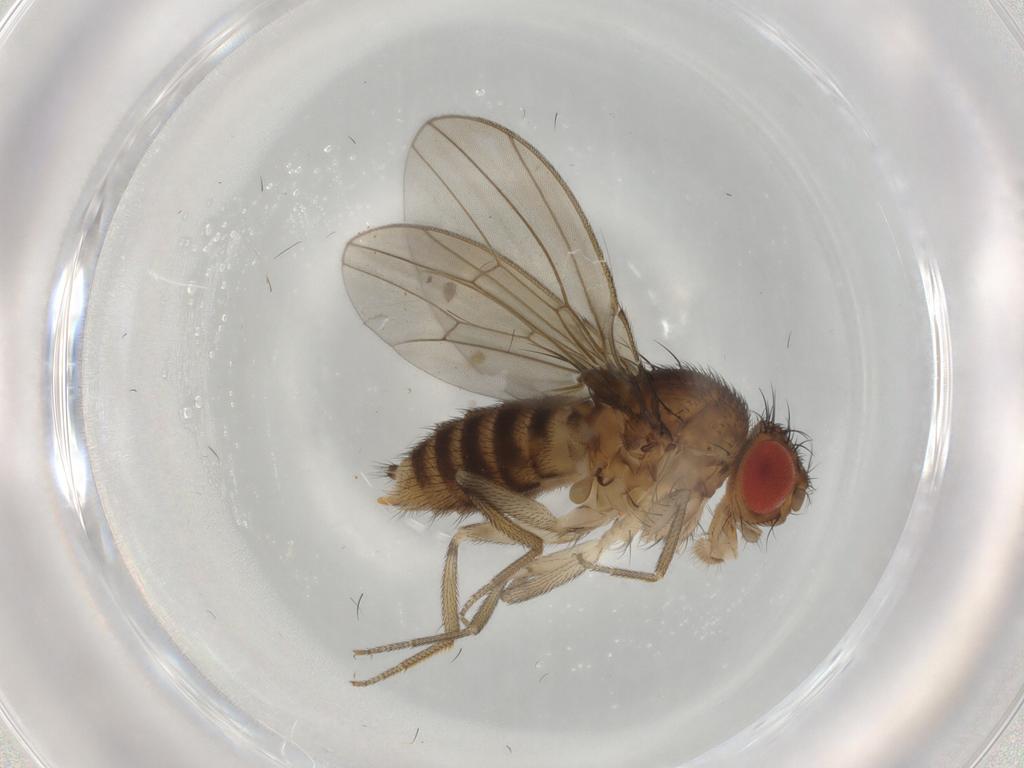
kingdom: Animalia
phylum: Arthropoda
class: Insecta
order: Diptera
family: Drosophilidae
